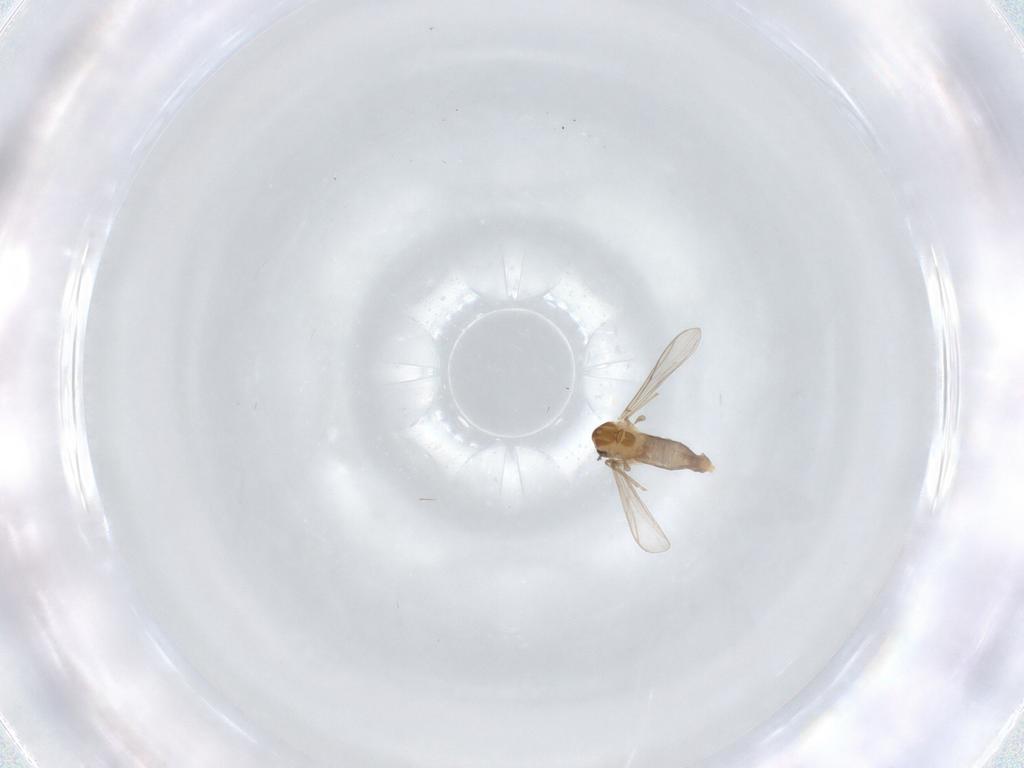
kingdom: Animalia
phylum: Arthropoda
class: Insecta
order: Diptera
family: Chironomidae
